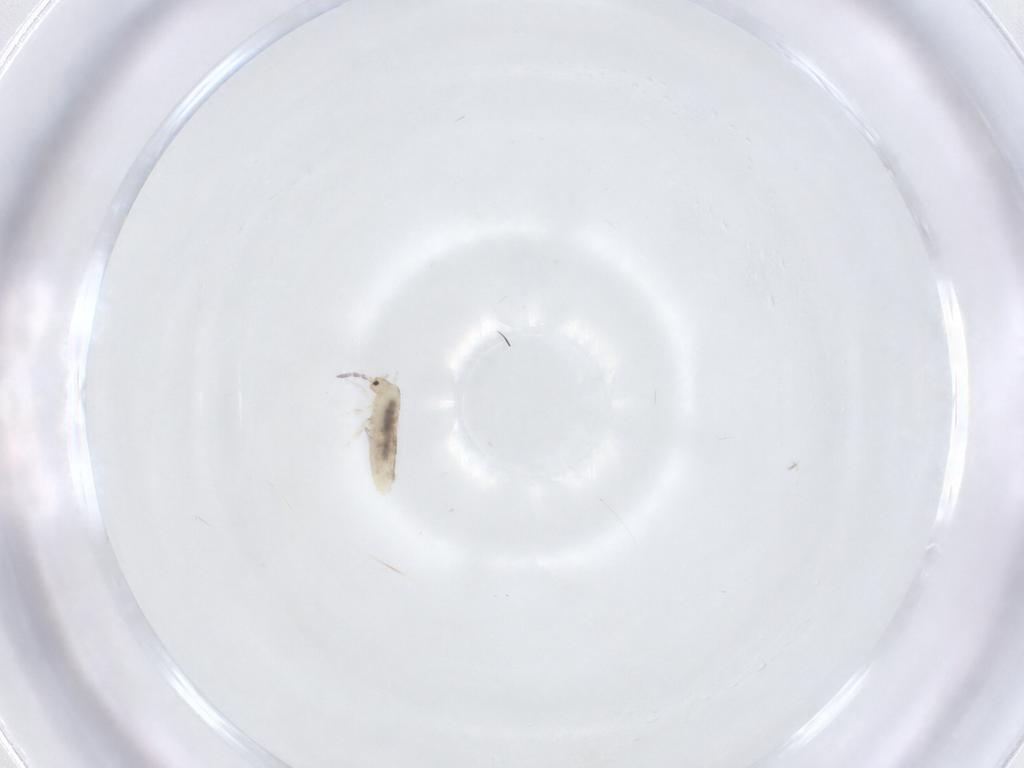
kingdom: Animalia
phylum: Arthropoda
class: Collembola
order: Entomobryomorpha
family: Entomobryidae
